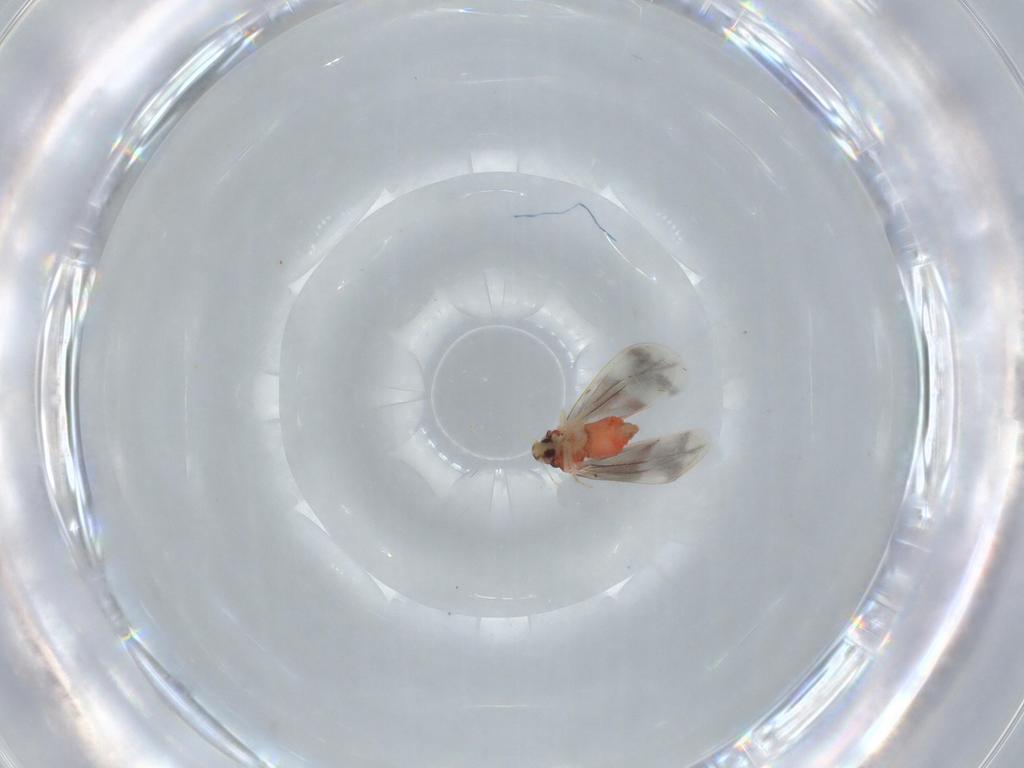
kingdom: Animalia
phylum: Arthropoda
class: Insecta
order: Hemiptera
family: Aleyrodidae
